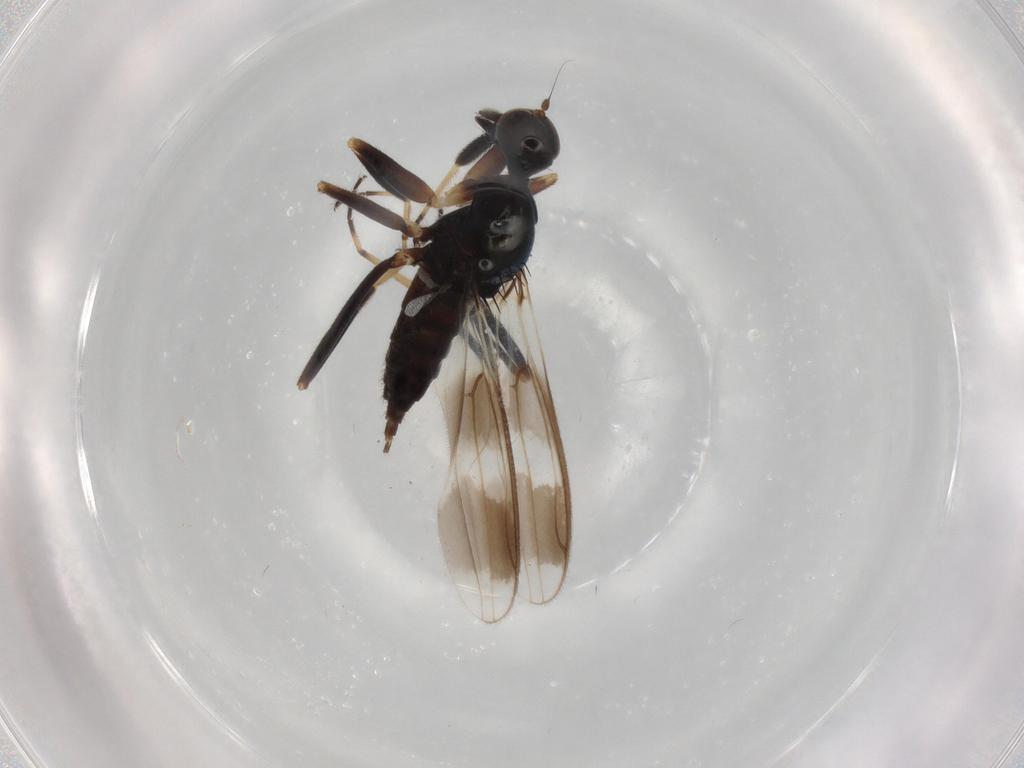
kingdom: Animalia
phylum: Arthropoda
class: Insecta
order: Diptera
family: Hybotidae
